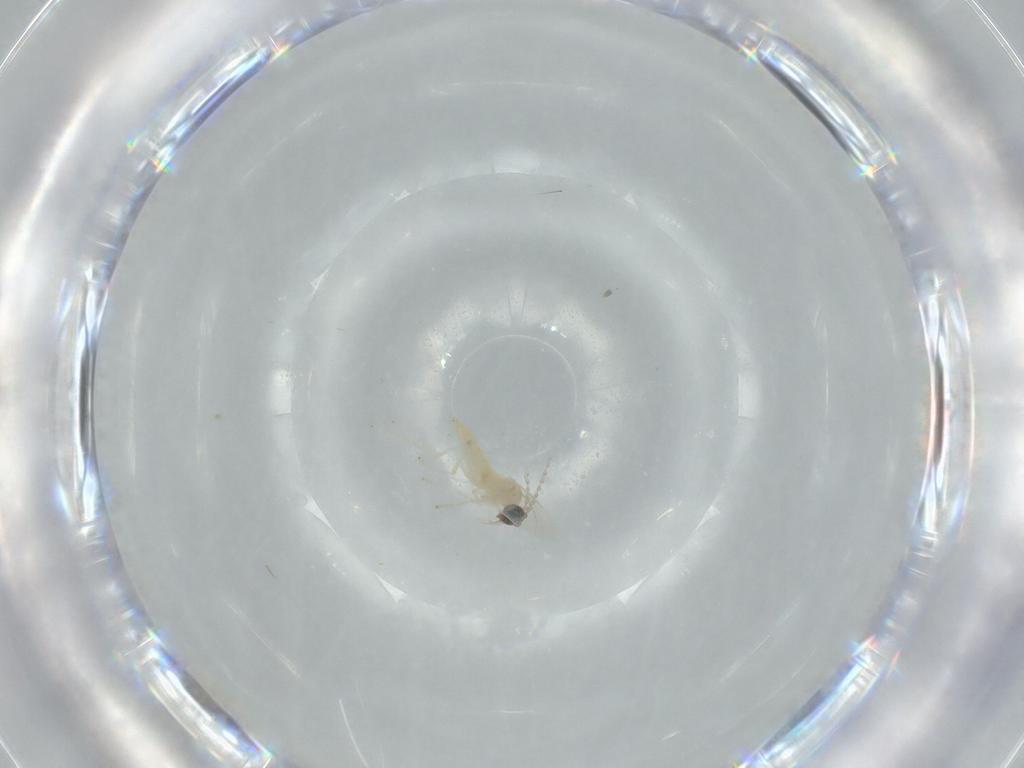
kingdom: Animalia
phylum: Arthropoda
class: Insecta
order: Diptera
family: Cecidomyiidae
